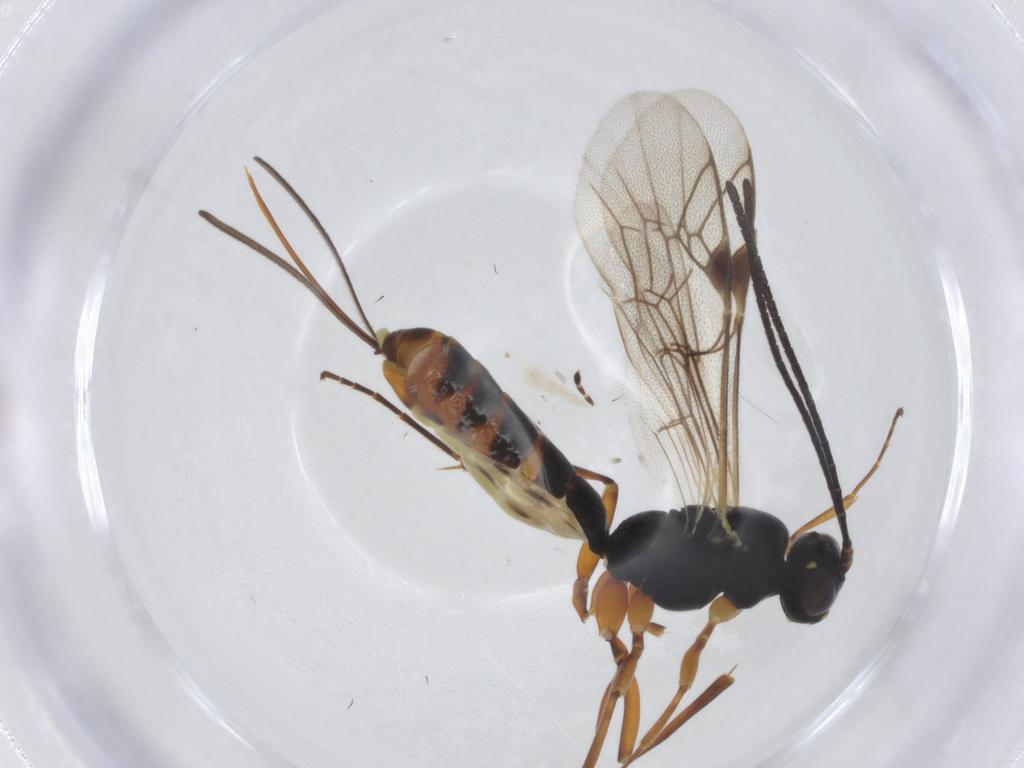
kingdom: Animalia
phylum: Arthropoda
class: Insecta
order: Hymenoptera
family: Ichneumonidae
